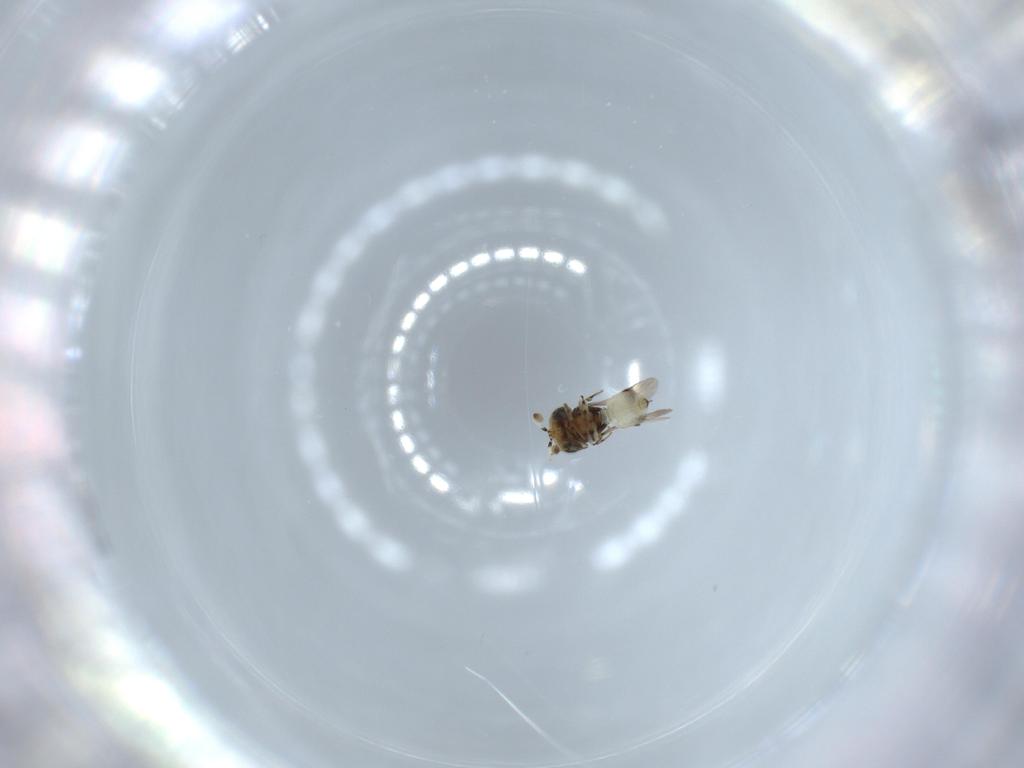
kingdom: Animalia
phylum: Arthropoda
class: Insecta
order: Hymenoptera
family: Scelionidae
